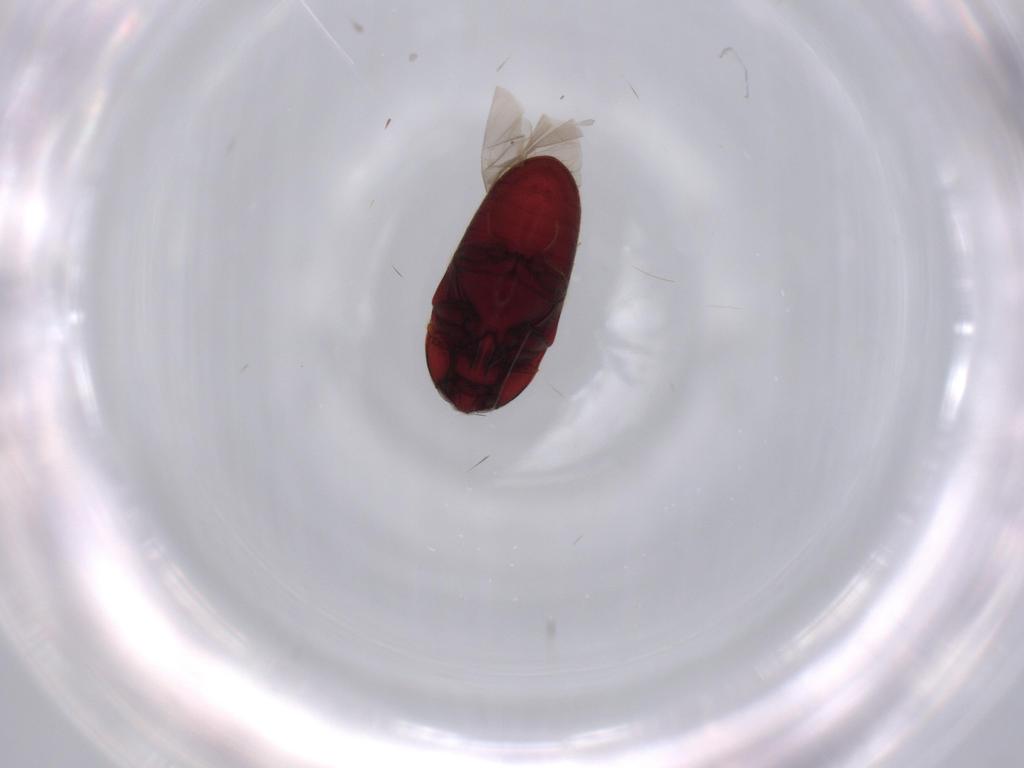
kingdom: Animalia
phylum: Arthropoda
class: Insecta
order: Coleoptera
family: Throscidae
